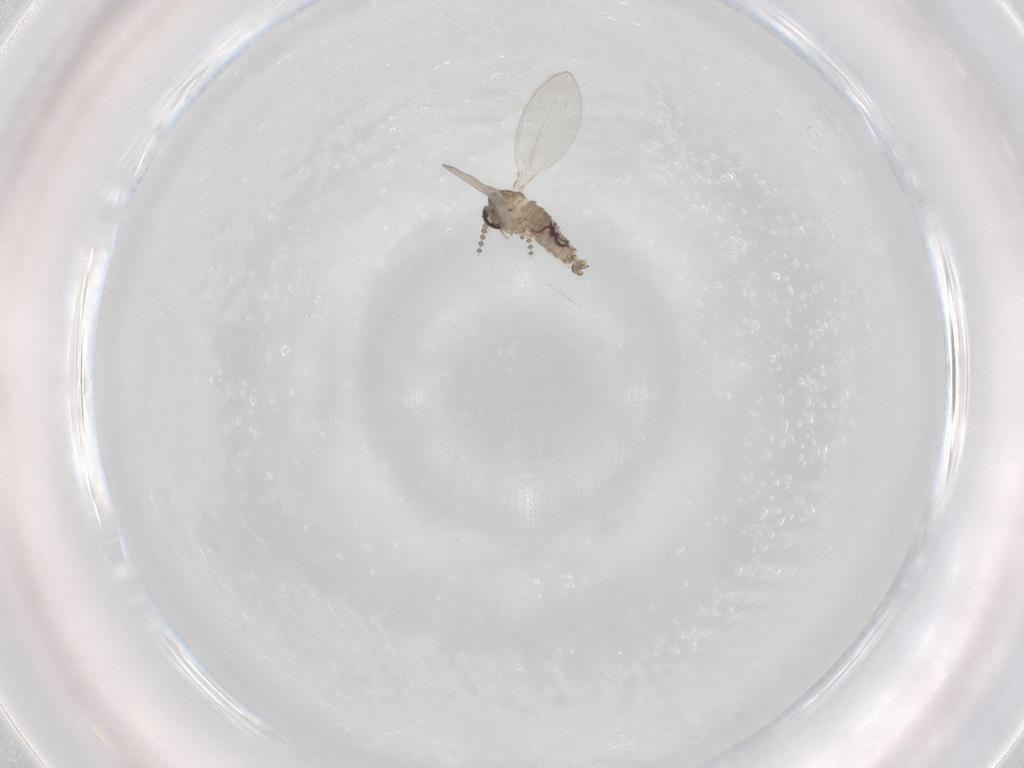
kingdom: Animalia
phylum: Arthropoda
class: Insecta
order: Diptera
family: Psychodidae
